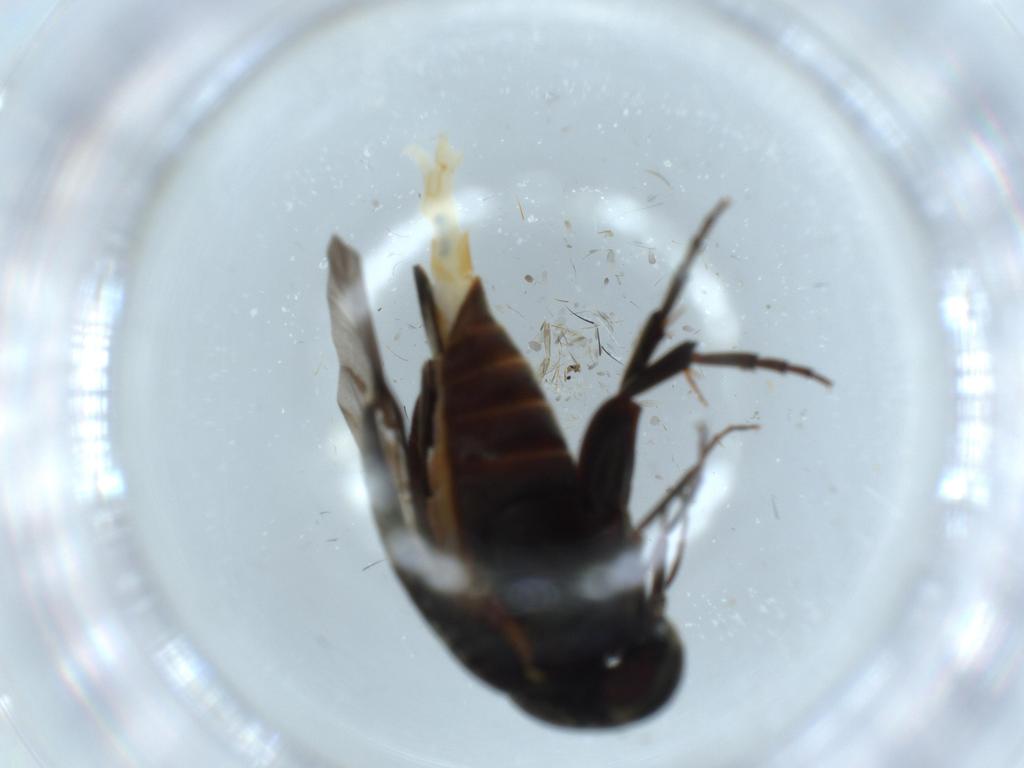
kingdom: Animalia
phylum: Arthropoda
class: Insecta
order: Coleoptera
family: Mordellidae
